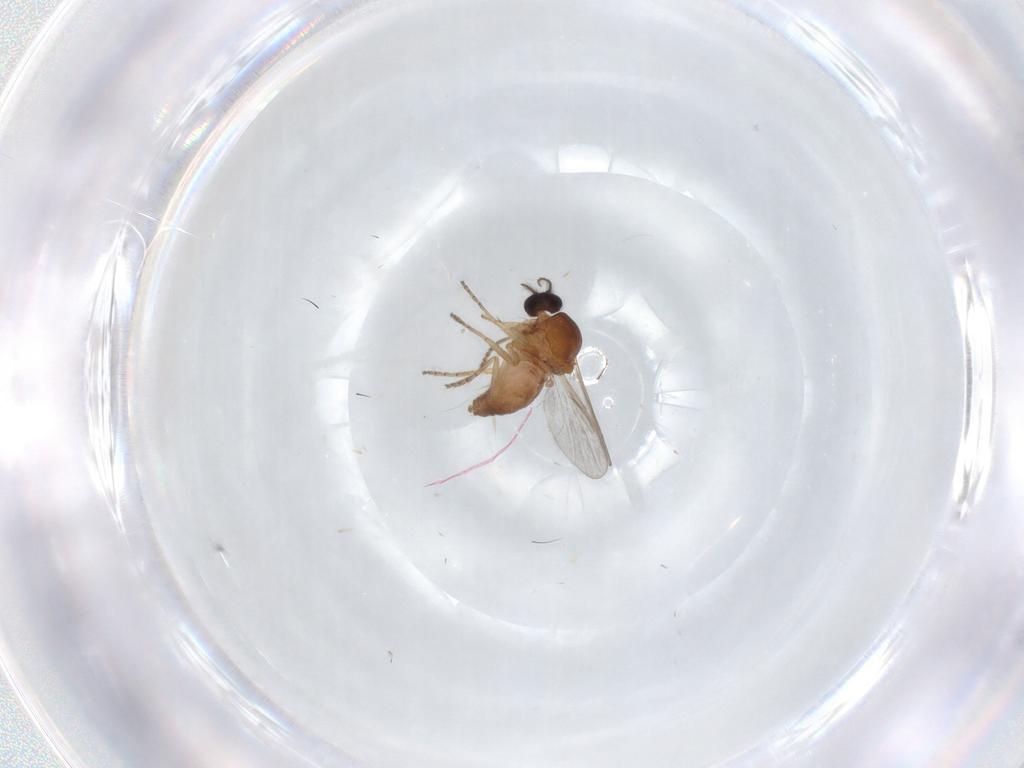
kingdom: Animalia
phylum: Arthropoda
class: Insecta
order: Diptera
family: Ceratopogonidae
